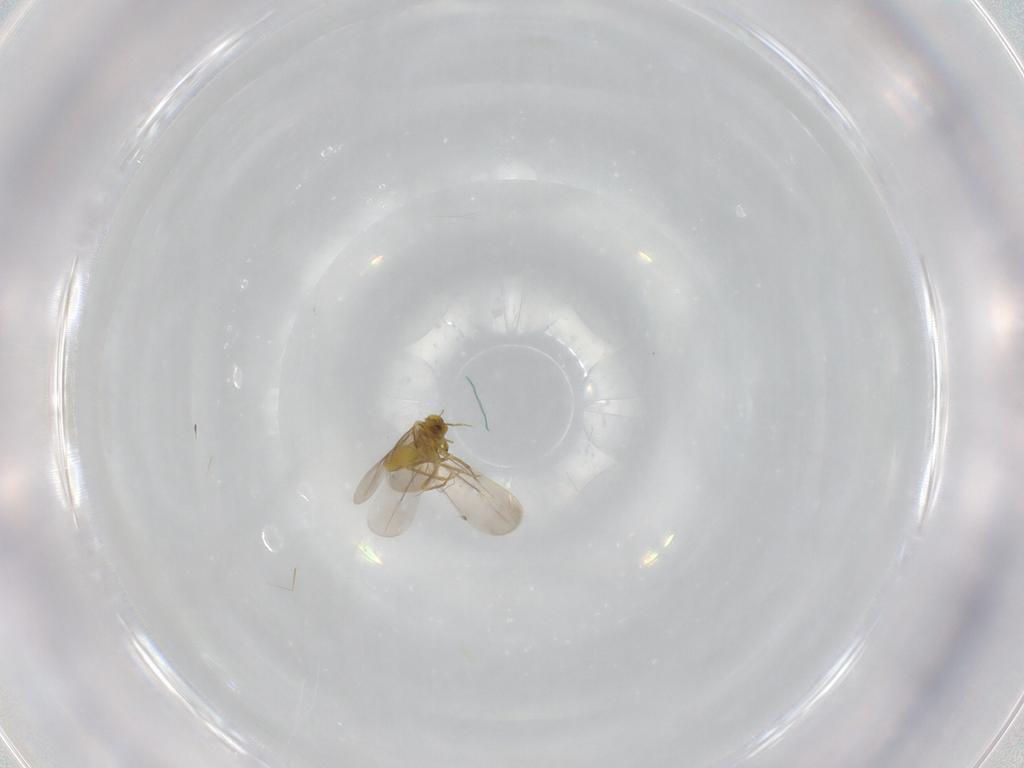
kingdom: Animalia
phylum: Arthropoda
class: Insecta
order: Hemiptera
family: Aleyrodidae
